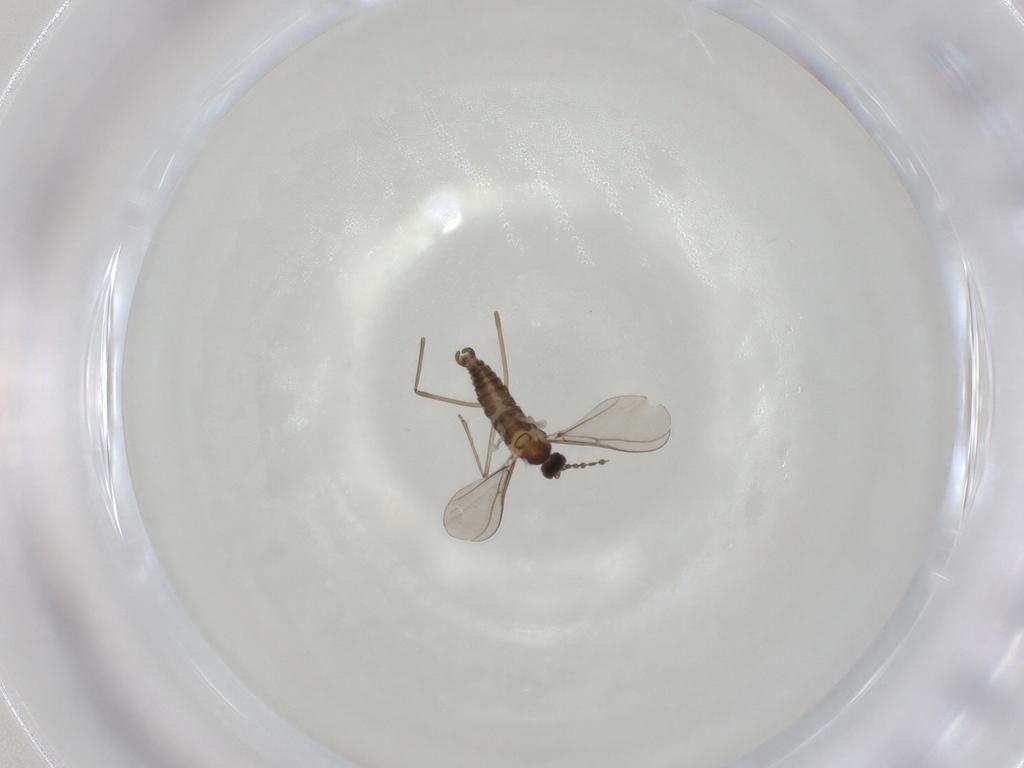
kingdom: Animalia
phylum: Arthropoda
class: Insecta
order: Diptera
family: Cecidomyiidae
